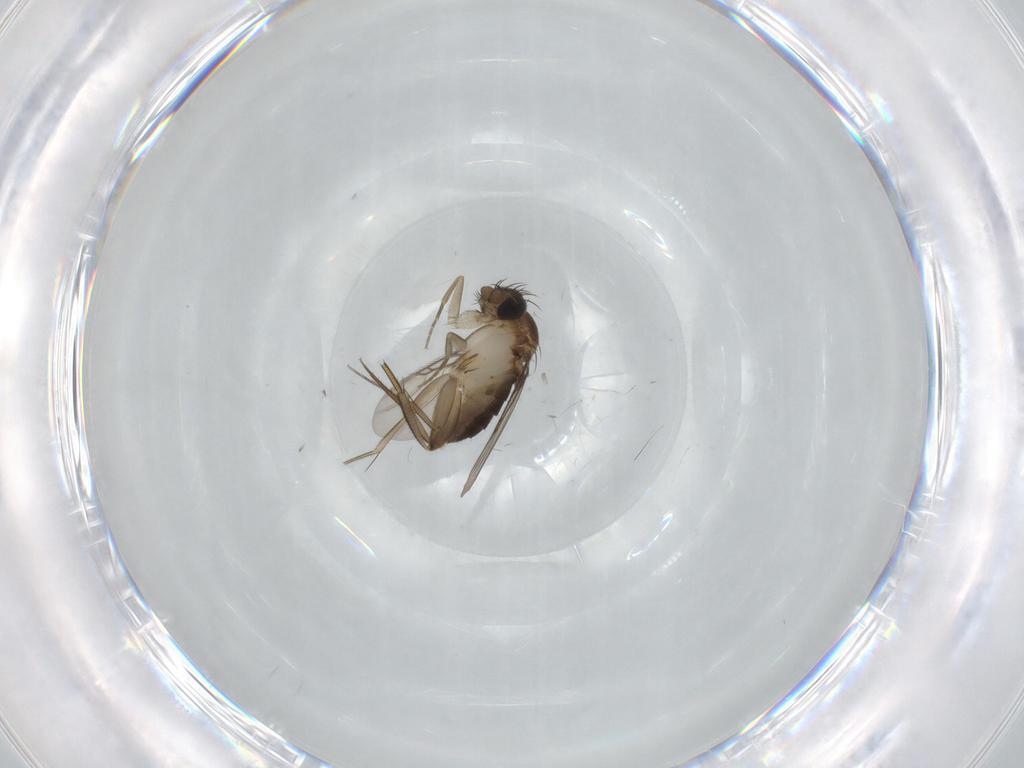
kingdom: Animalia
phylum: Arthropoda
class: Insecta
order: Diptera
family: Phoridae
